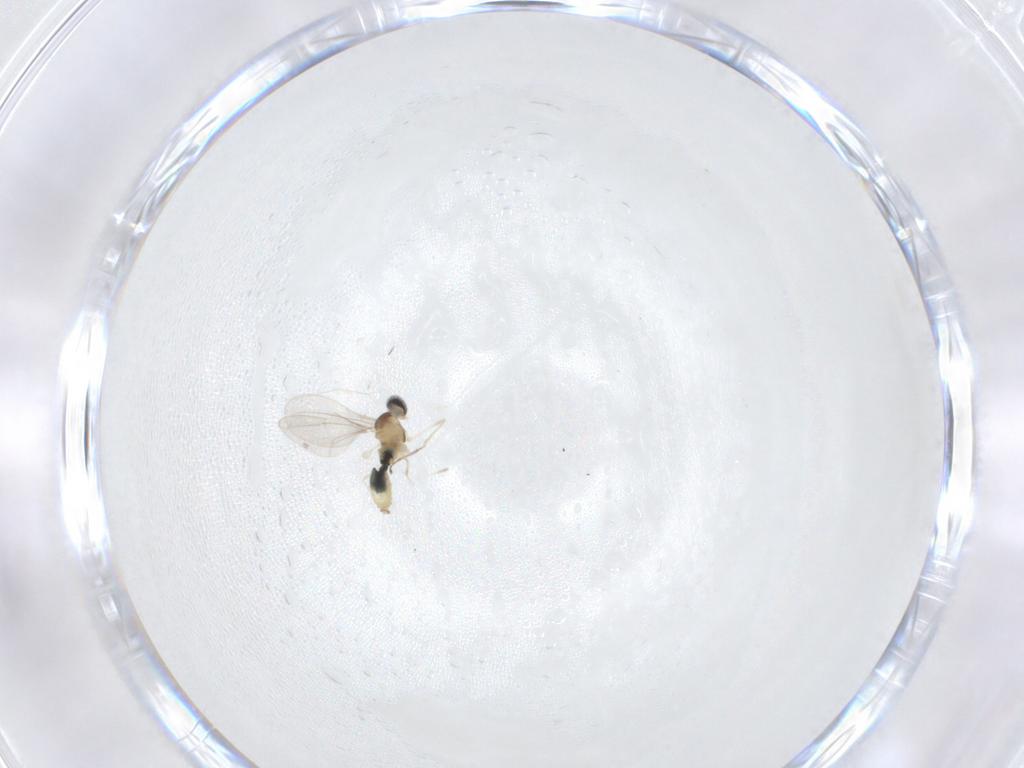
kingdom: Animalia
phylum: Arthropoda
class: Insecta
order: Diptera
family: Cecidomyiidae
